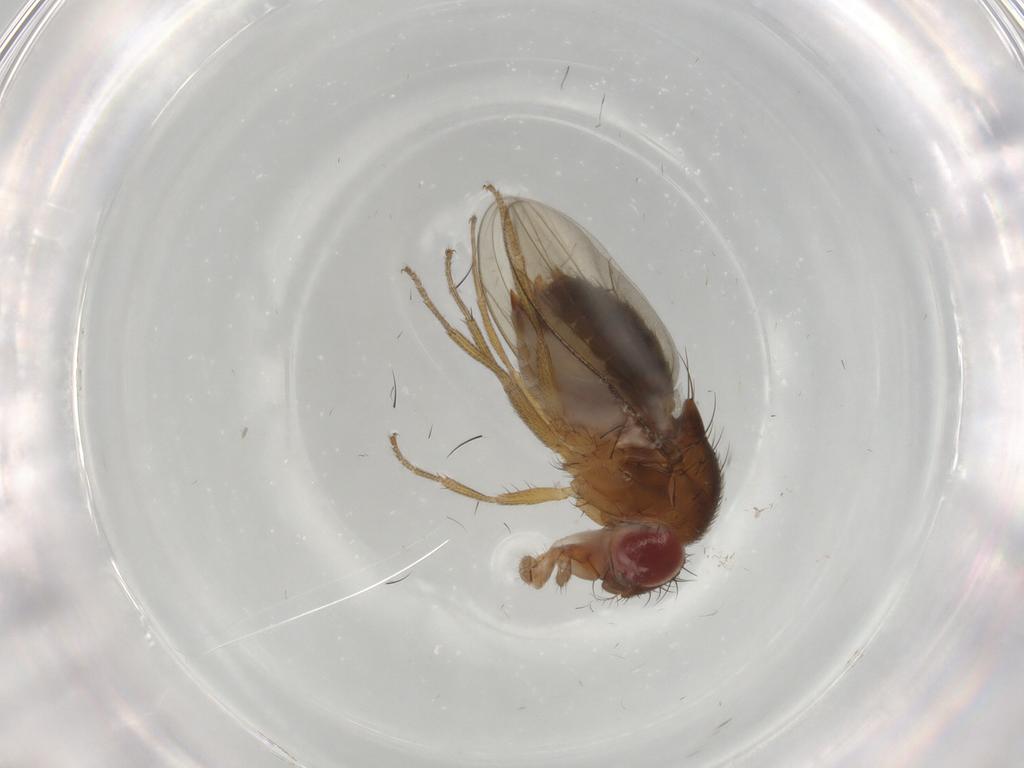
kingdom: Animalia
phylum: Arthropoda
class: Insecta
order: Diptera
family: Drosophilidae
